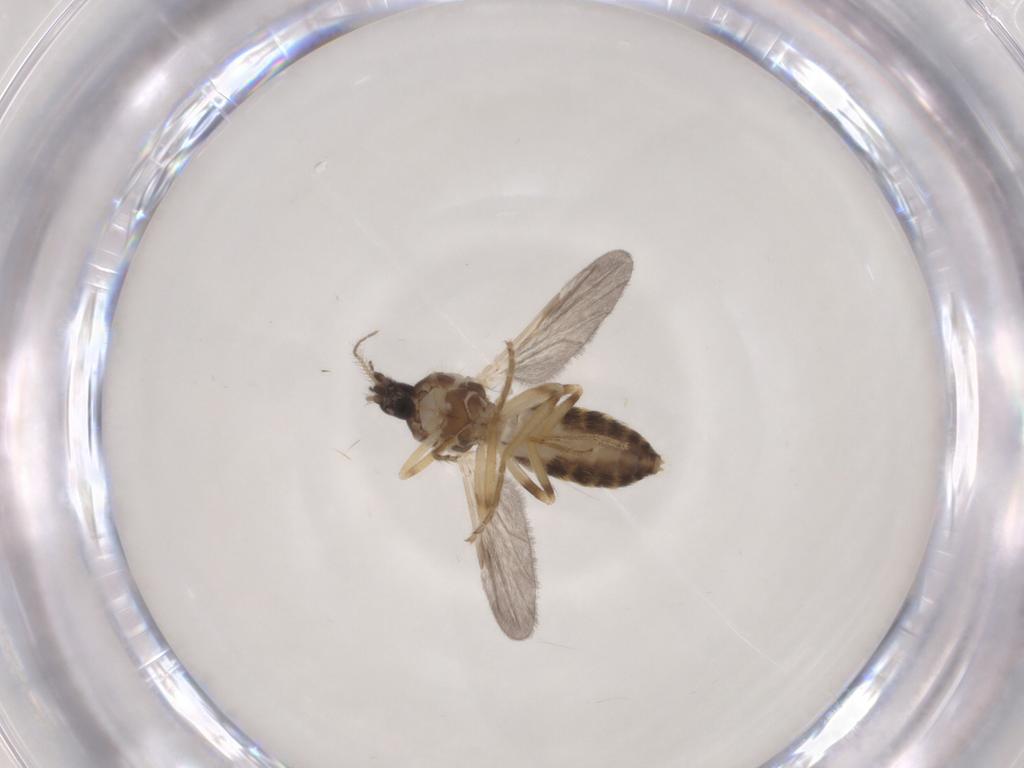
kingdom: Animalia
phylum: Arthropoda
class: Insecta
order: Diptera
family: Ceratopogonidae
